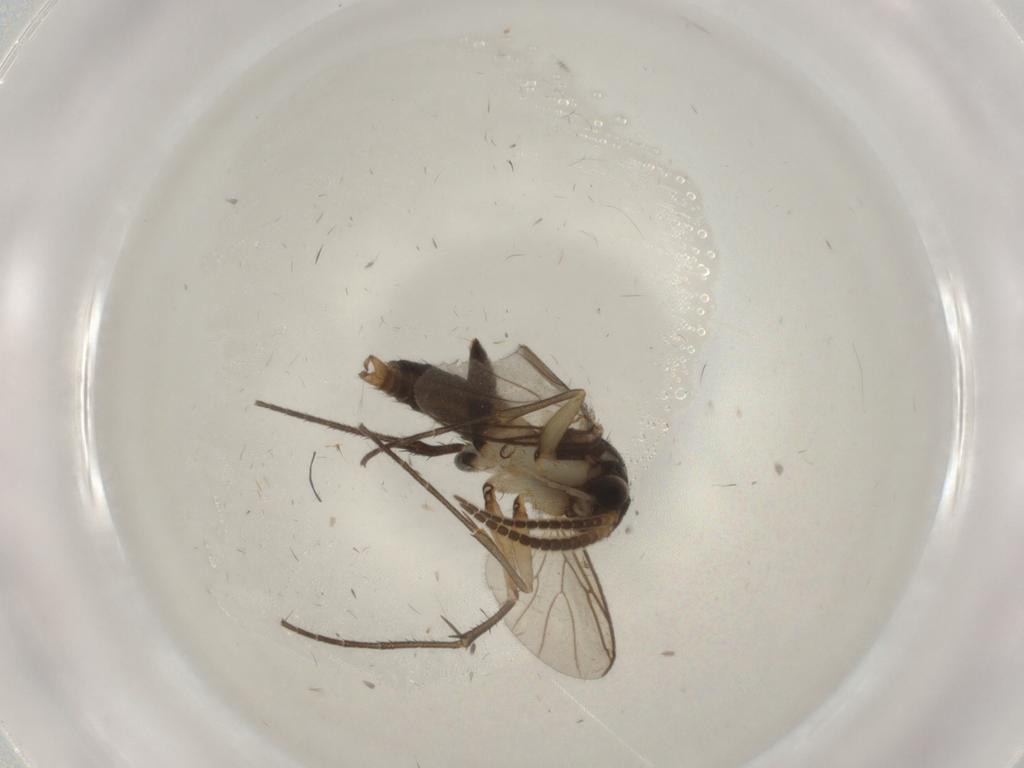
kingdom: Animalia
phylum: Arthropoda
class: Insecta
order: Diptera
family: Mycetophilidae
